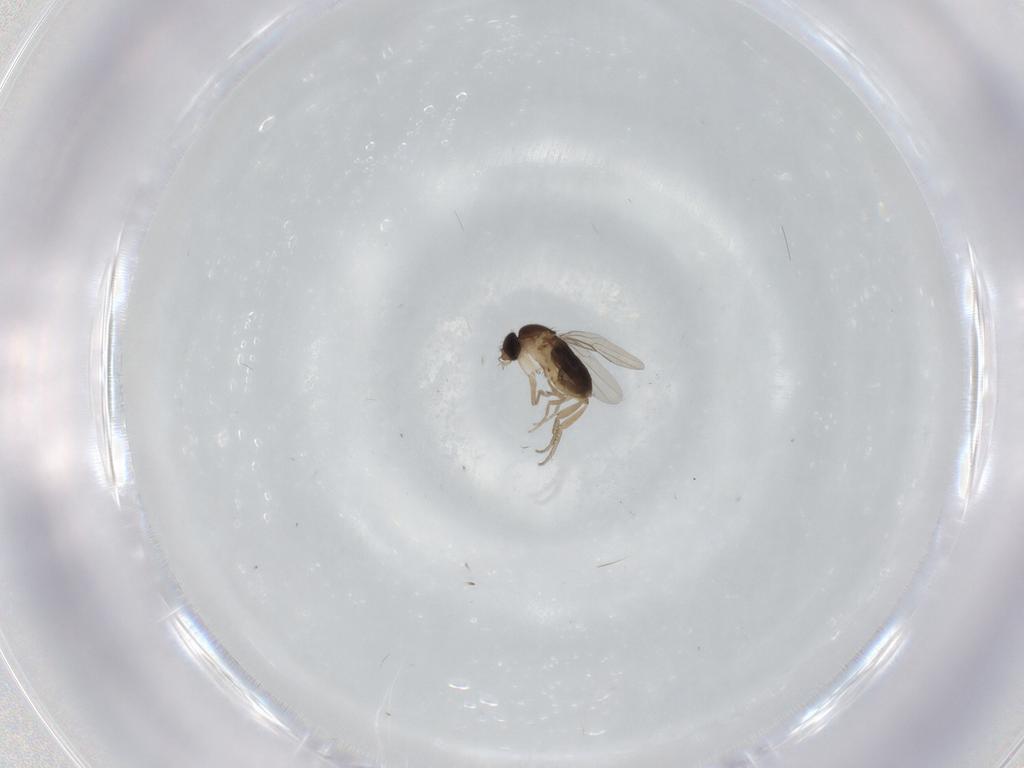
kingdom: Animalia
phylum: Arthropoda
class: Insecta
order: Diptera
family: Phoridae
